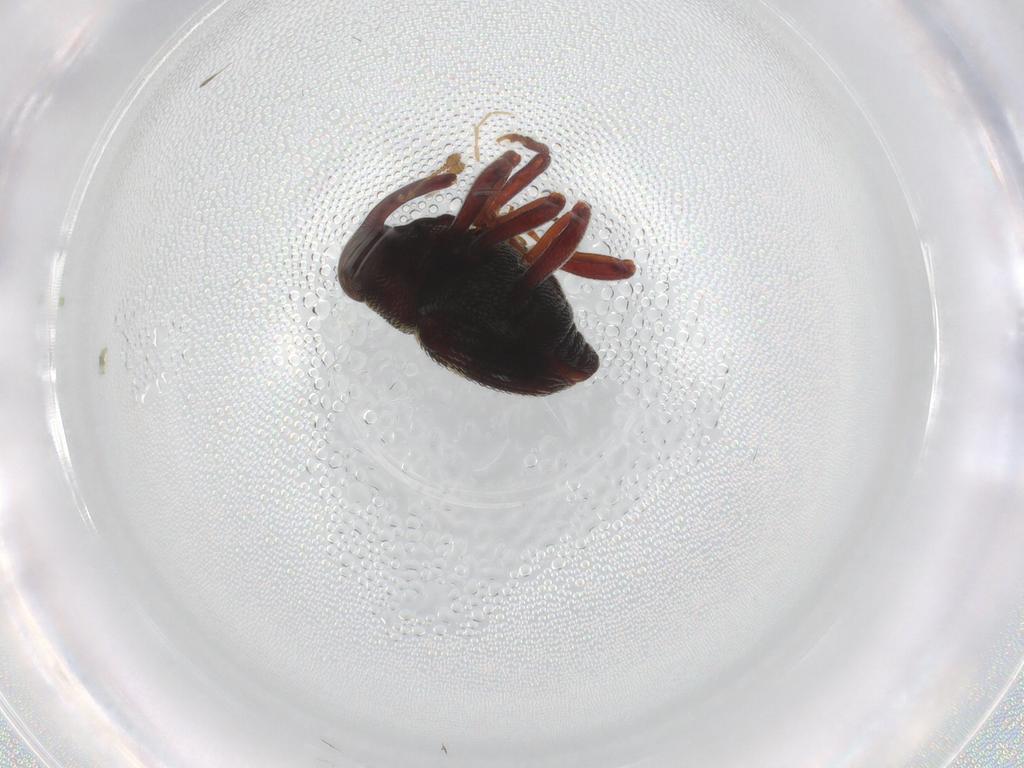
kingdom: Animalia
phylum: Arthropoda
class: Insecta
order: Coleoptera
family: Curculionidae
